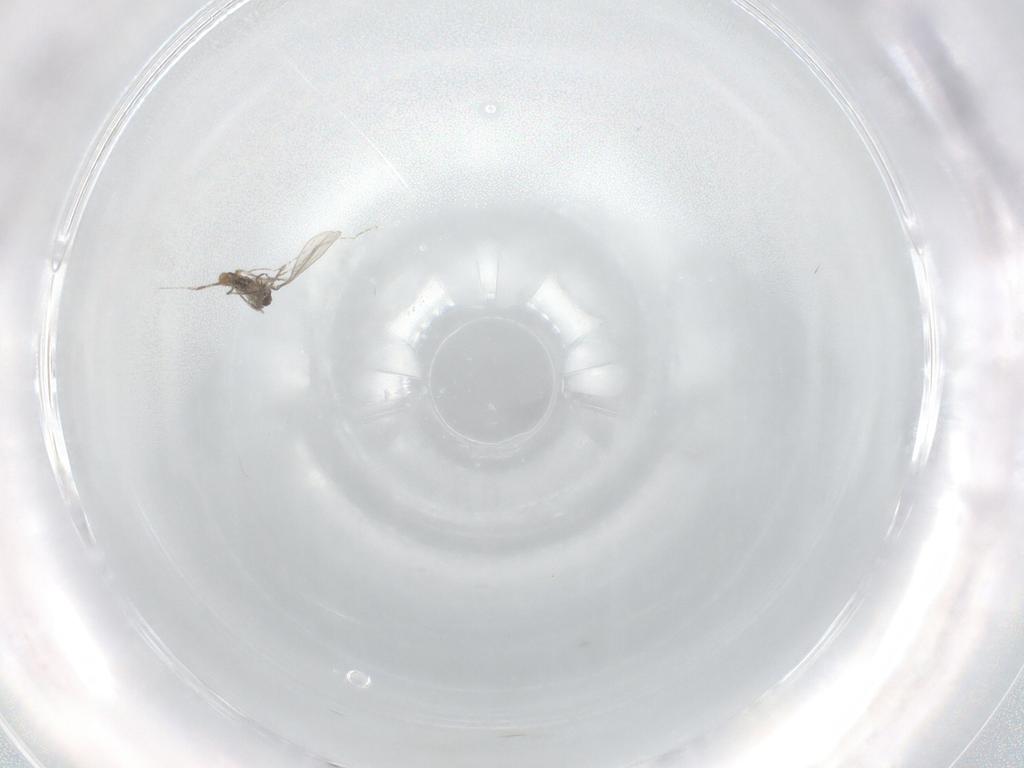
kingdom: Animalia
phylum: Arthropoda
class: Insecta
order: Diptera
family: Cecidomyiidae
